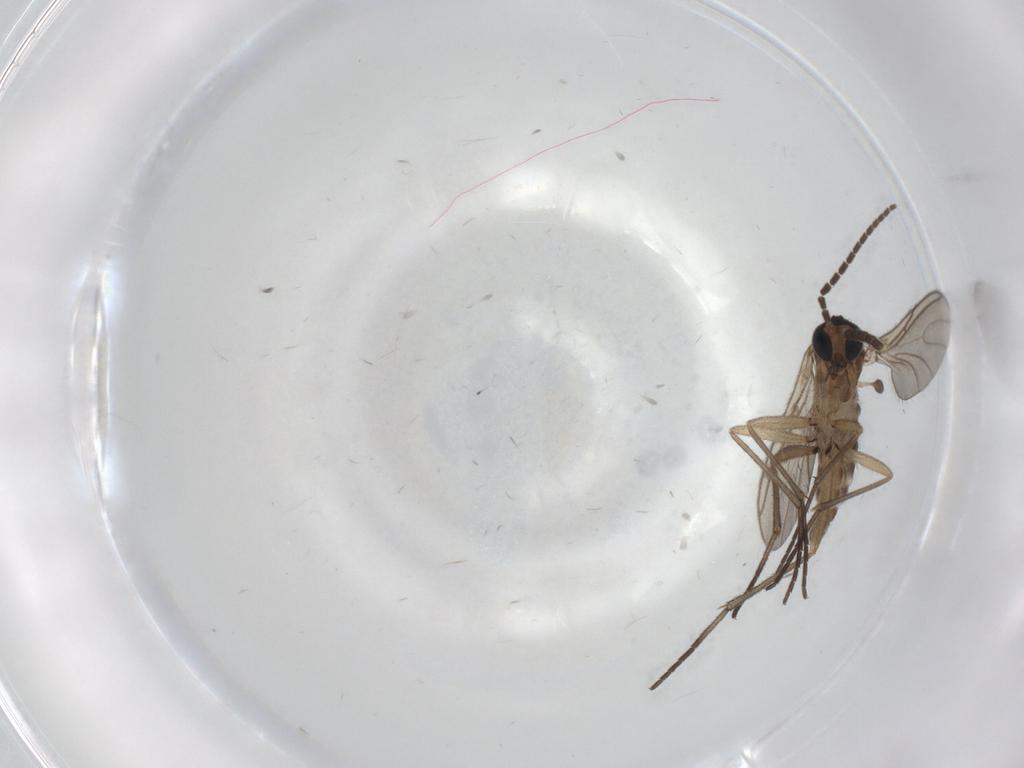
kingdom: Animalia
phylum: Arthropoda
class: Insecta
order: Diptera
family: Sciaridae
